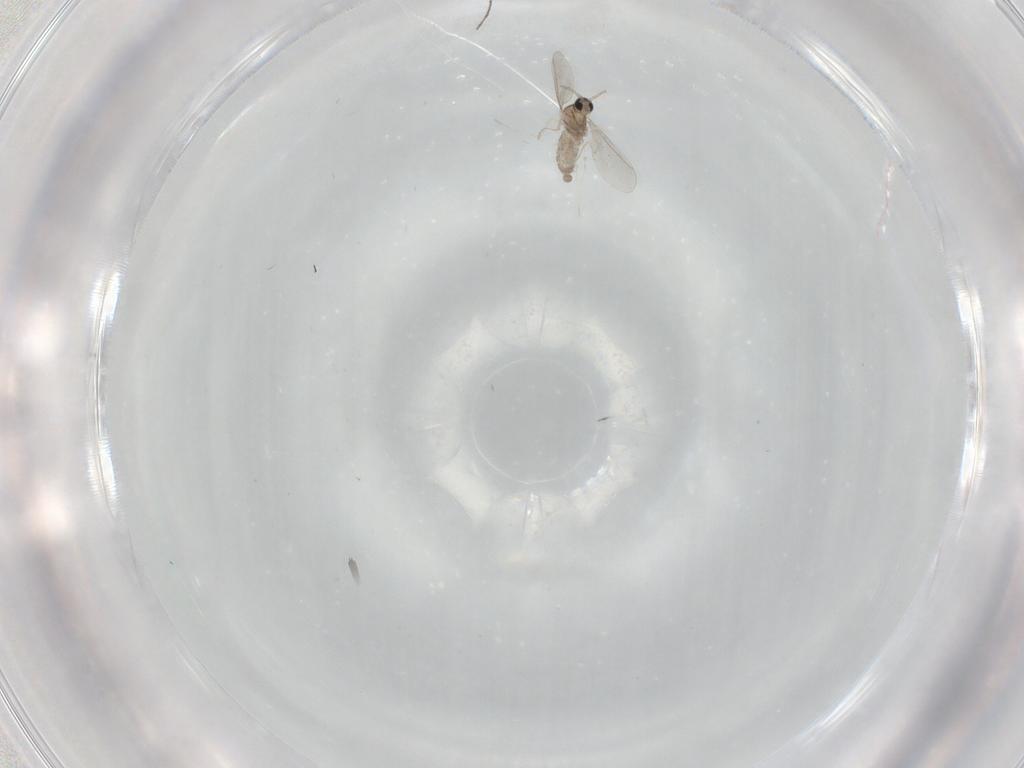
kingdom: Animalia
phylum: Arthropoda
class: Insecta
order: Diptera
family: Cecidomyiidae
